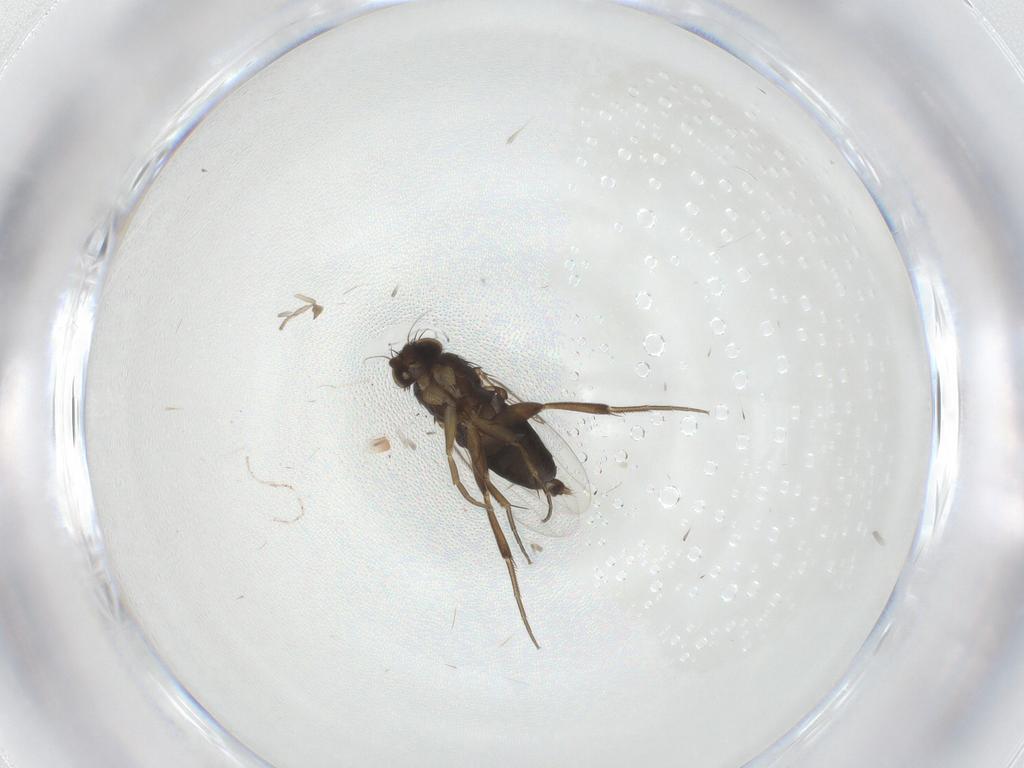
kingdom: Animalia
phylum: Arthropoda
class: Insecta
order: Diptera
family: Phoridae
